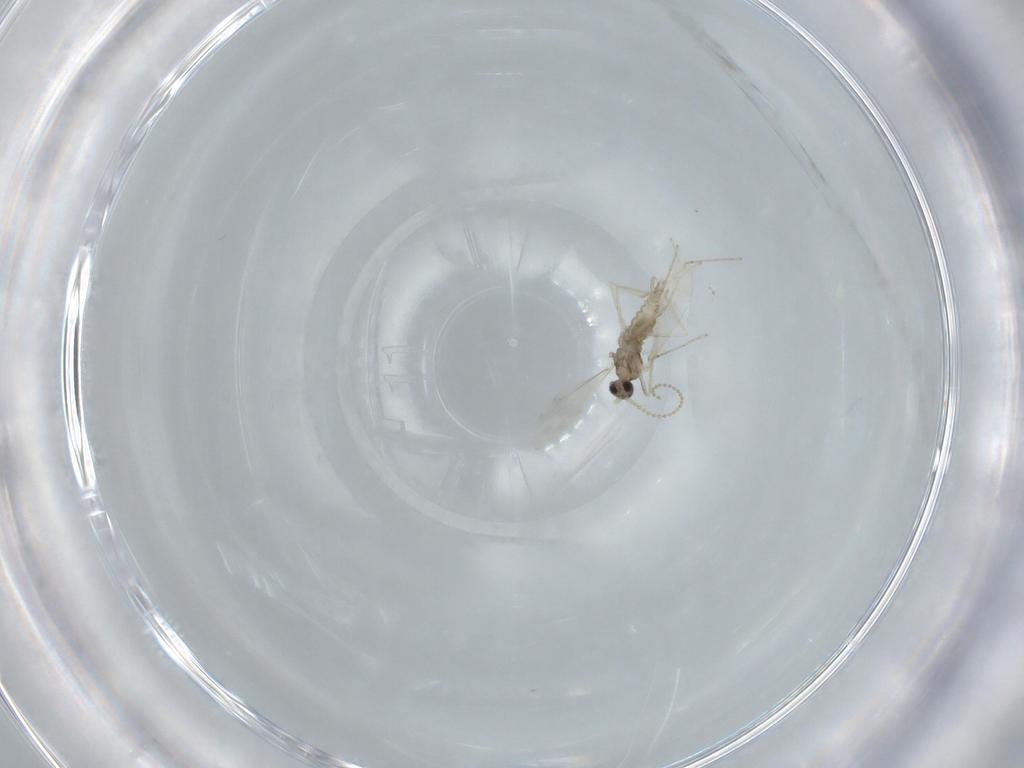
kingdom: Animalia
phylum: Arthropoda
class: Insecta
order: Diptera
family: Cecidomyiidae
